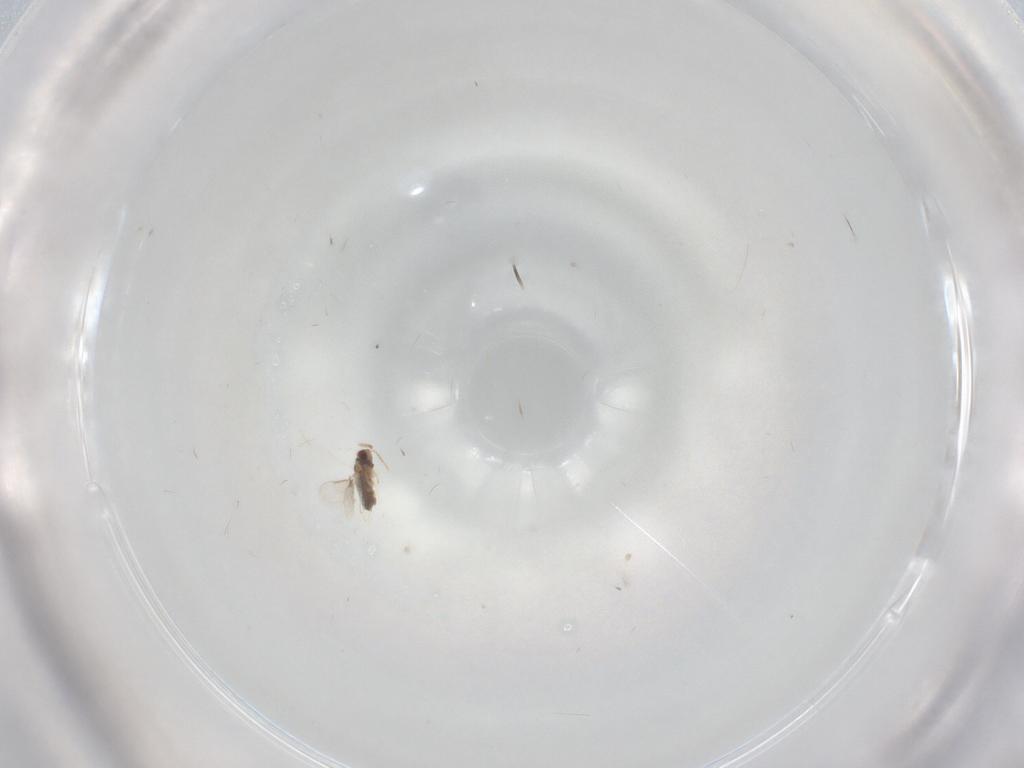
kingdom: Animalia
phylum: Arthropoda
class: Insecta
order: Hymenoptera
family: Aphelinidae
